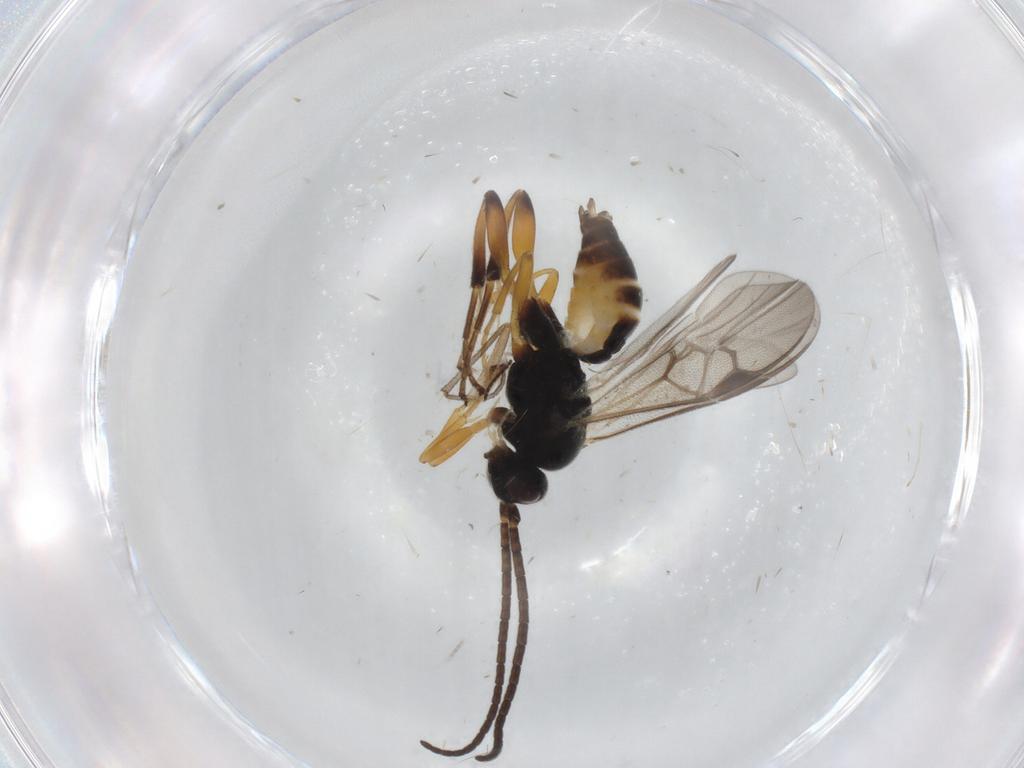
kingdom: Animalia
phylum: Arthropoda
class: Insecta
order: Hymenoptera
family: Braconidae
